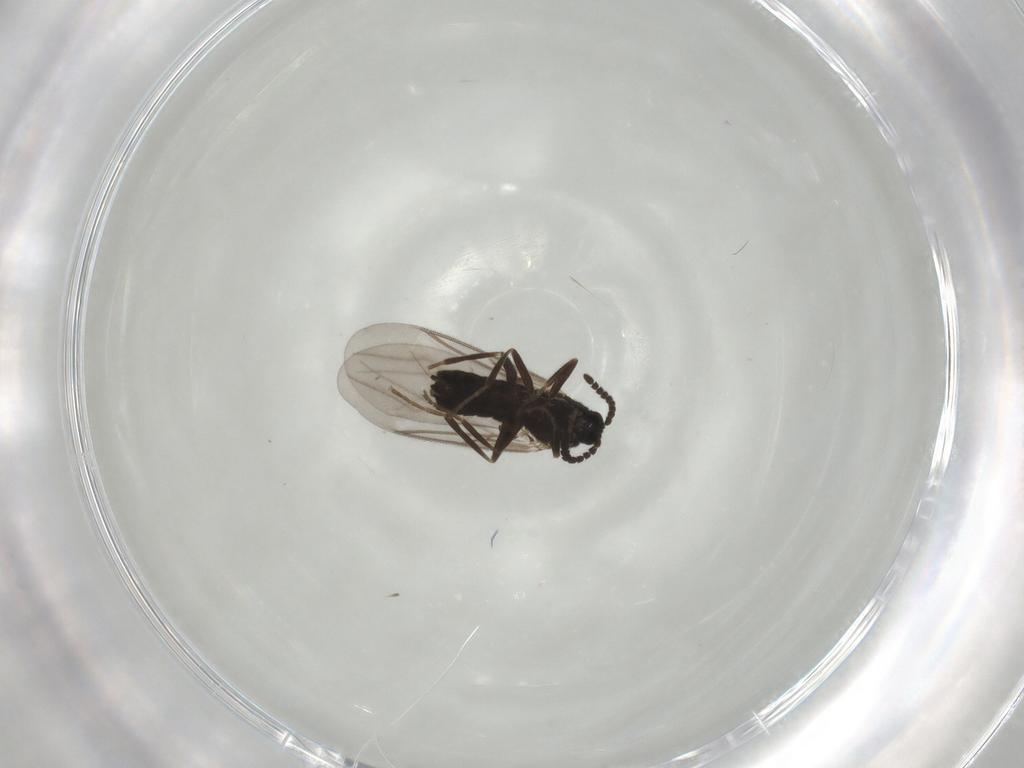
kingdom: Animalia
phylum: Arthropoda
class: Insecta
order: Diptera
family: Scatopsidae
